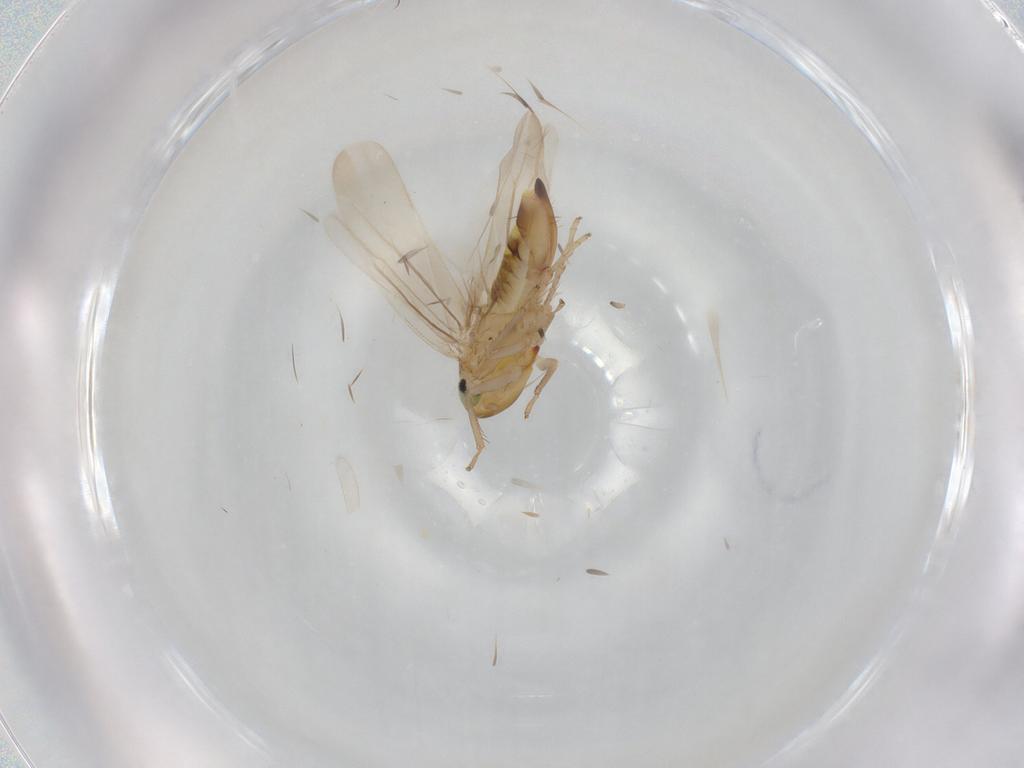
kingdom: Animalia
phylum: Arthropoda
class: Insecta
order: Hemiptera
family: Cicadellidae
